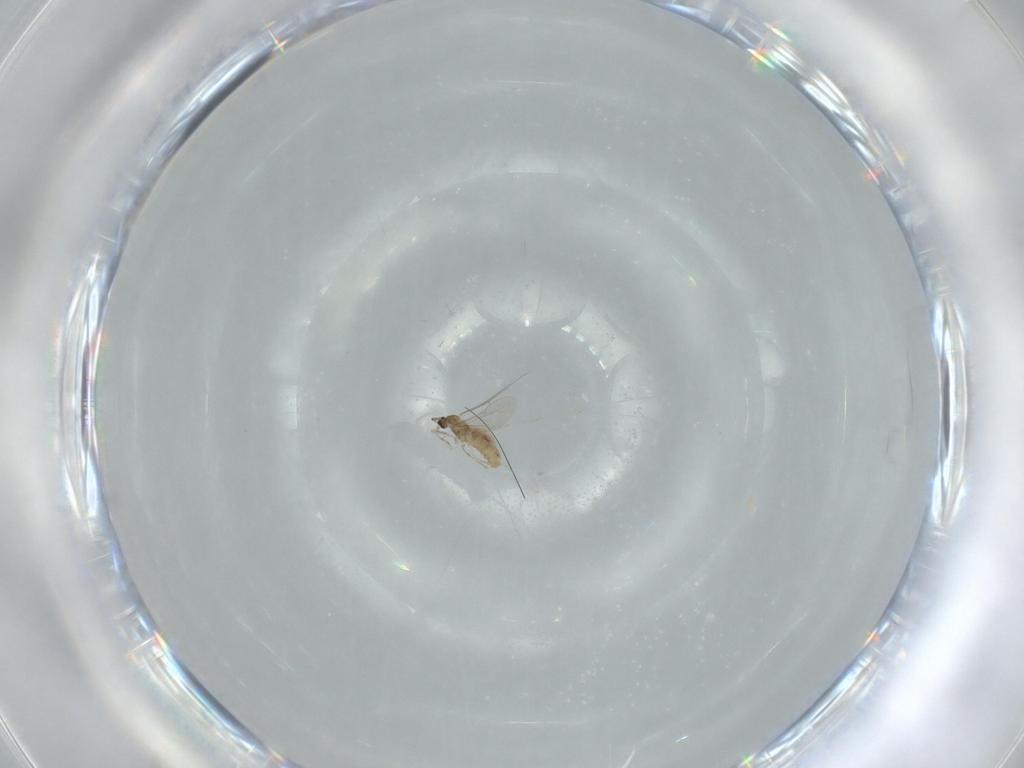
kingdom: Animalia
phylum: Arthropoda
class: Insecta
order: Diptera
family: Cecidomyiidae
